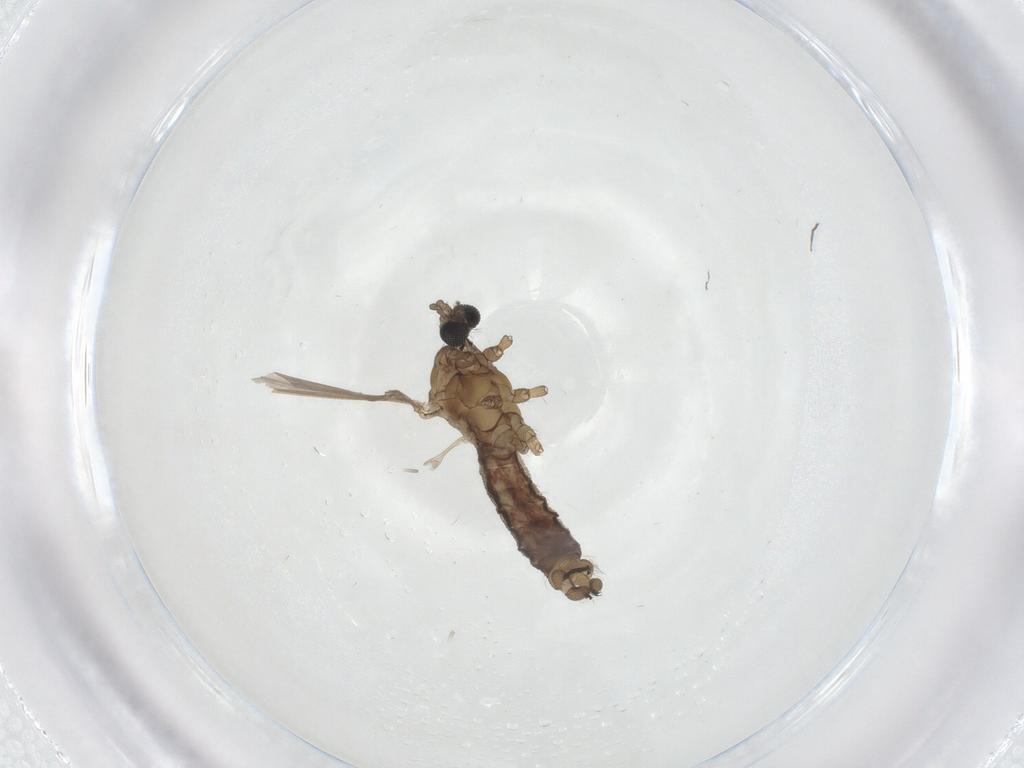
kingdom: Animalia
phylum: Arthropoda
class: Insecta
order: Diptera
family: Limoniidae
